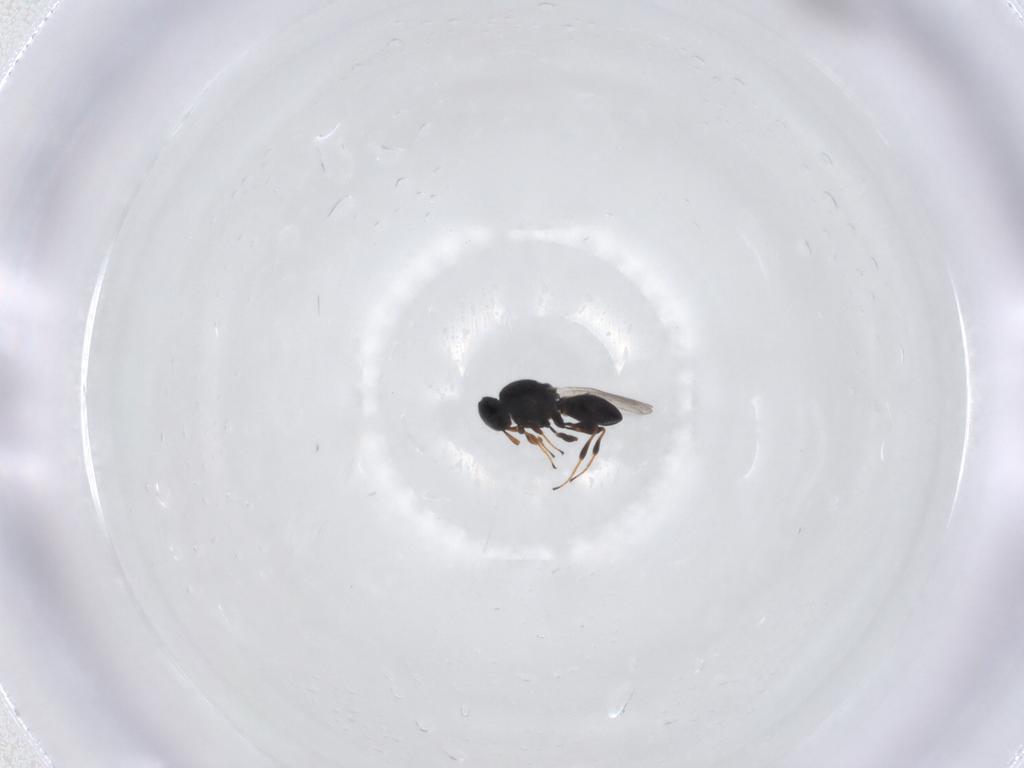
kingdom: Animalia
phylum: Arthropoda
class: Insecta
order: Hymenoptera
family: Platygastridae
